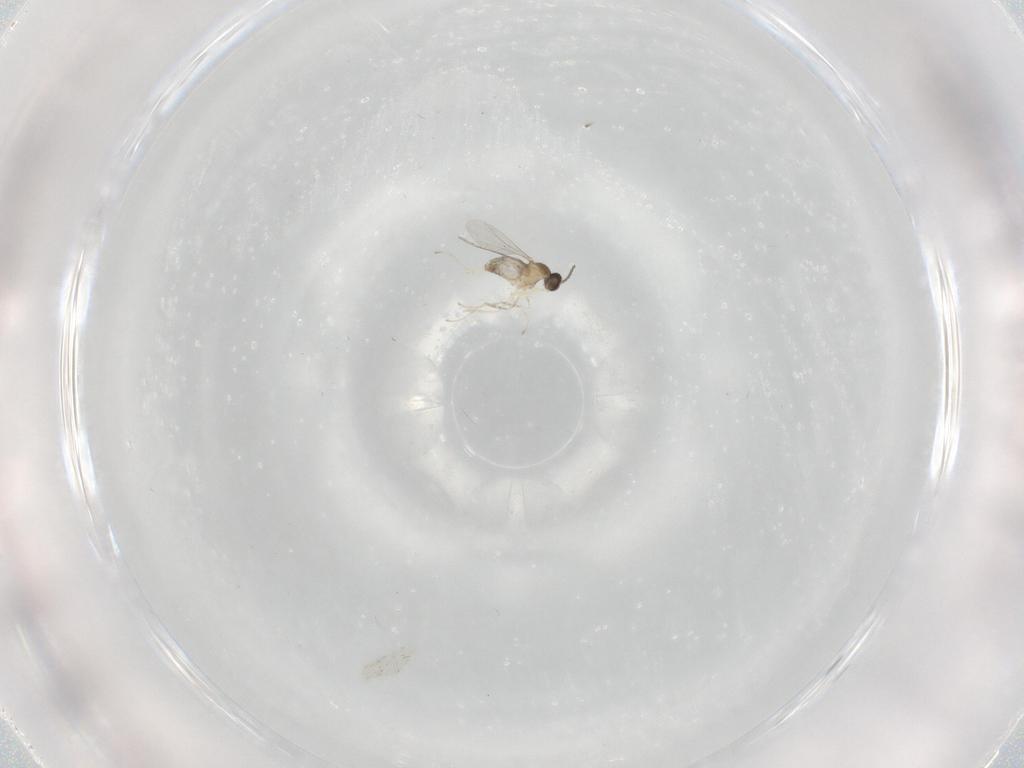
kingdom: Animalia
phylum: Arthropoda
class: Insecta
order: Diptera
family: Cecidomyiidae
